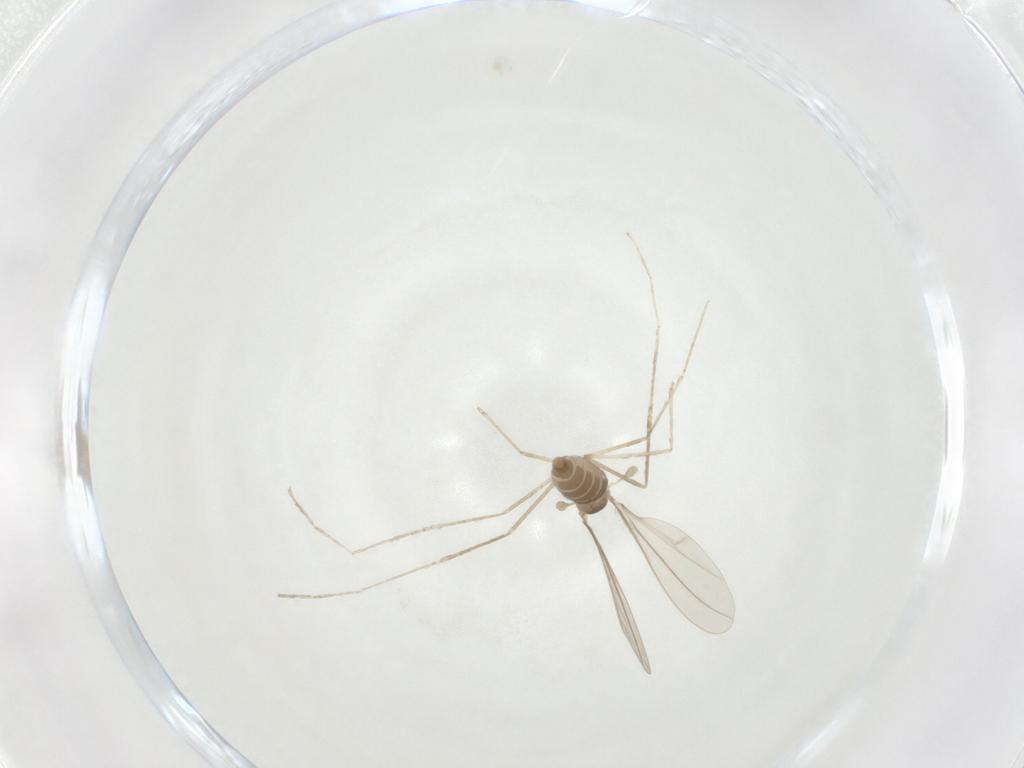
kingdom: Animalia
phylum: Arthropoda
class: Insecta
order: Diptera
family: Cecidomyiidae
